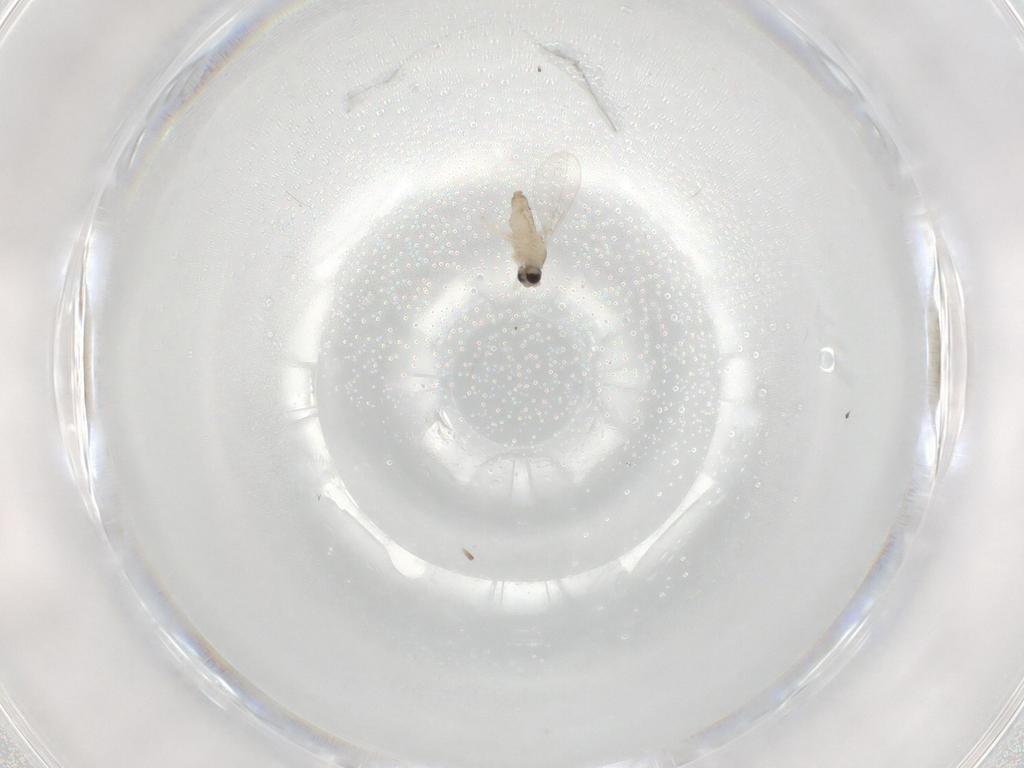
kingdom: Animalia
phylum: Arthropoda
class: Insecta
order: Diptera
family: Cecidomyiidae
